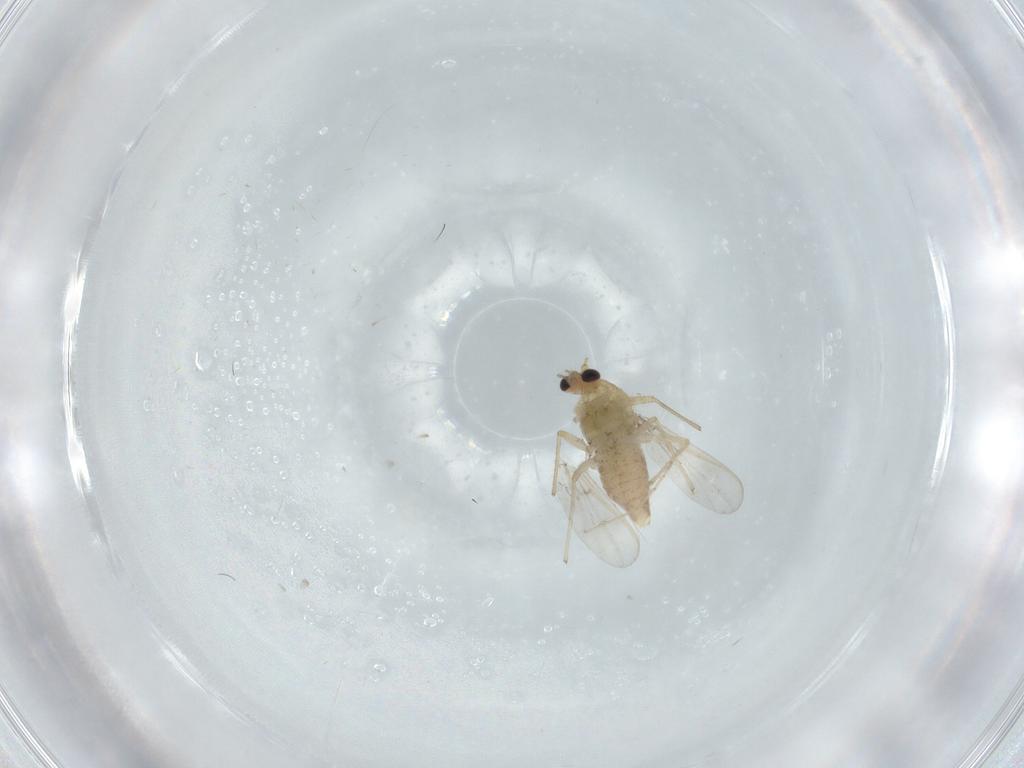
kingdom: Animalia
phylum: Arthropoda
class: Insecta
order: Diptera
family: Chironomidae
